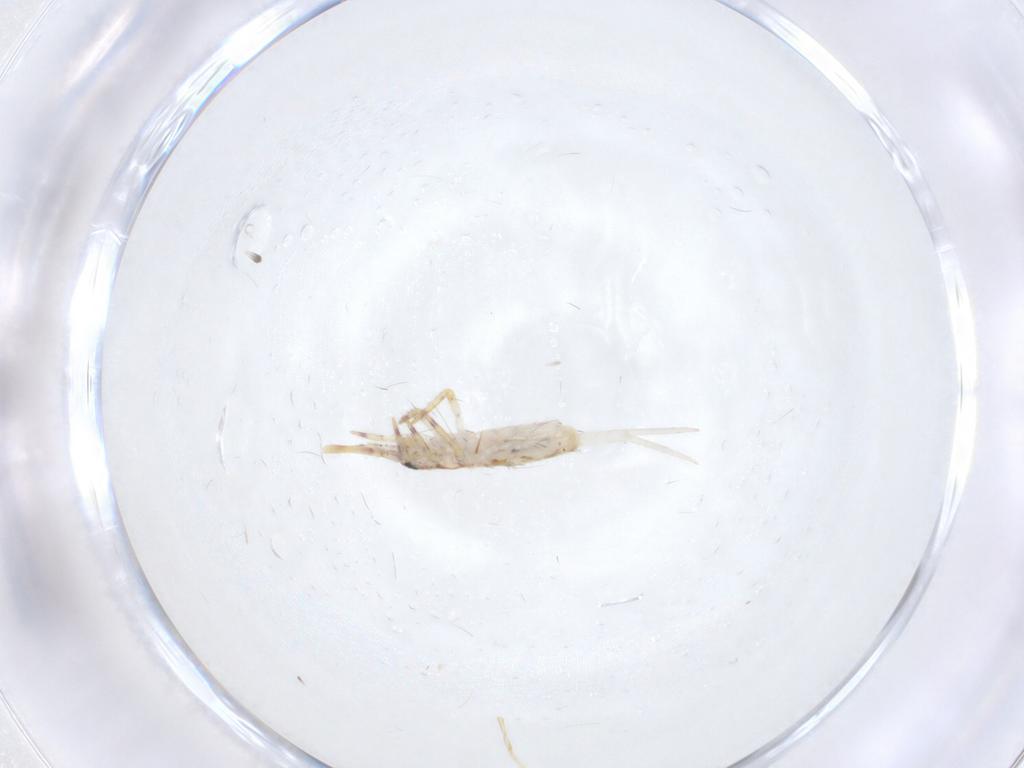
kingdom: Animalia
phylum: Arthropoda
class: Collembola
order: Entomobryomorpha
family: Entomobryidae
